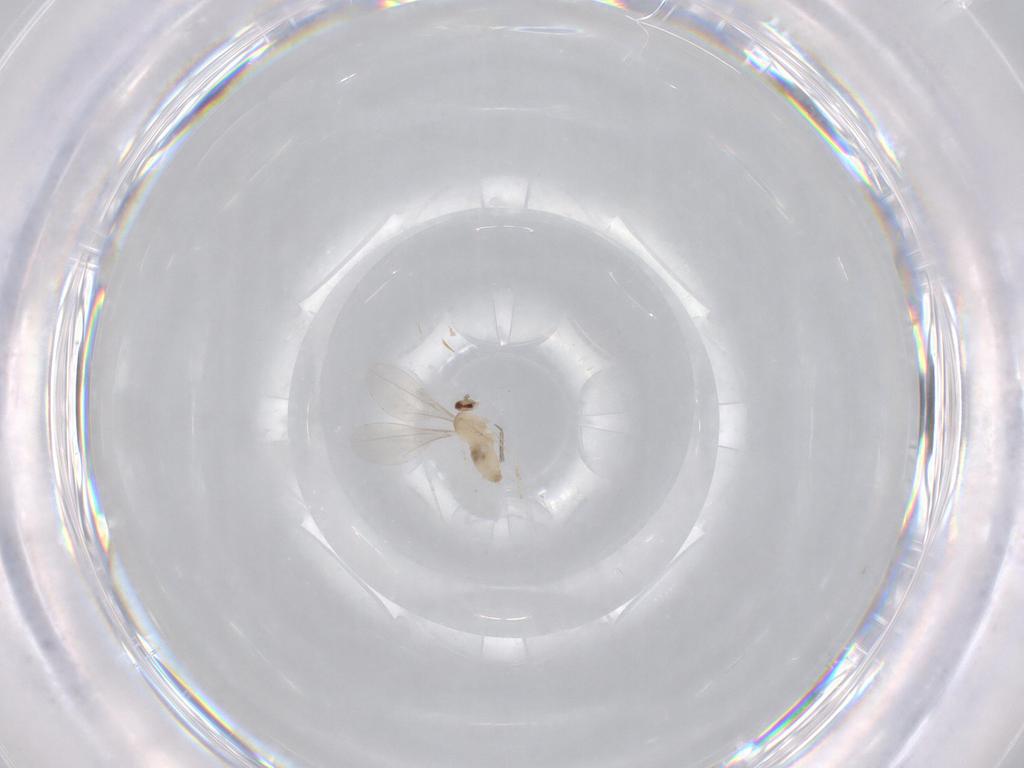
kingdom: Animalia
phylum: Arthropoda
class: Insecta
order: Diptera
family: Cecidomyiidae
